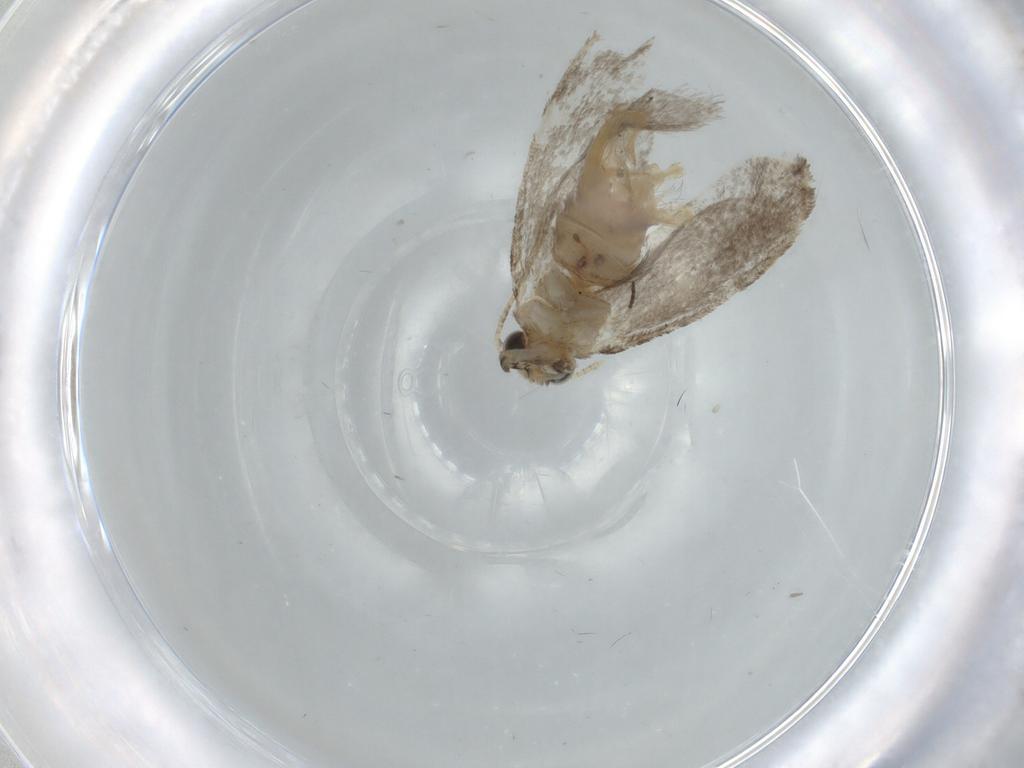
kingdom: Animalia
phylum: Arthropoda
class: Insecta
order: Lepidoptera
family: Tineidae
